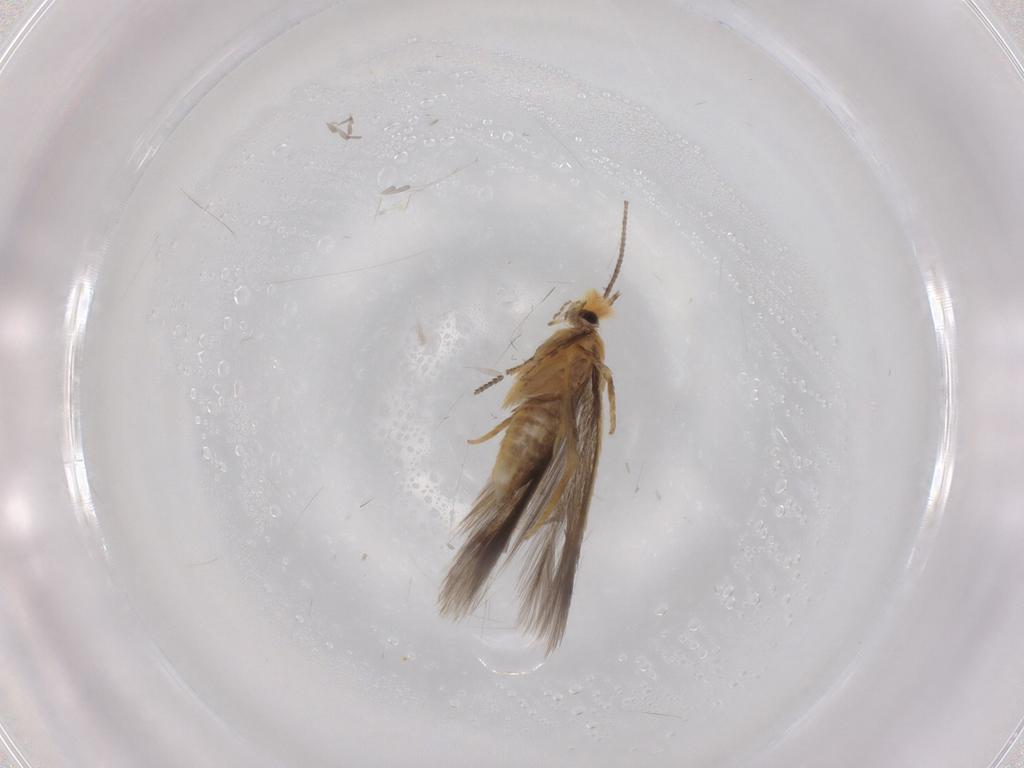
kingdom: Animalia
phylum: Arthropoda
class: Insecta
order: Lepidoptera
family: Nepticulidae
